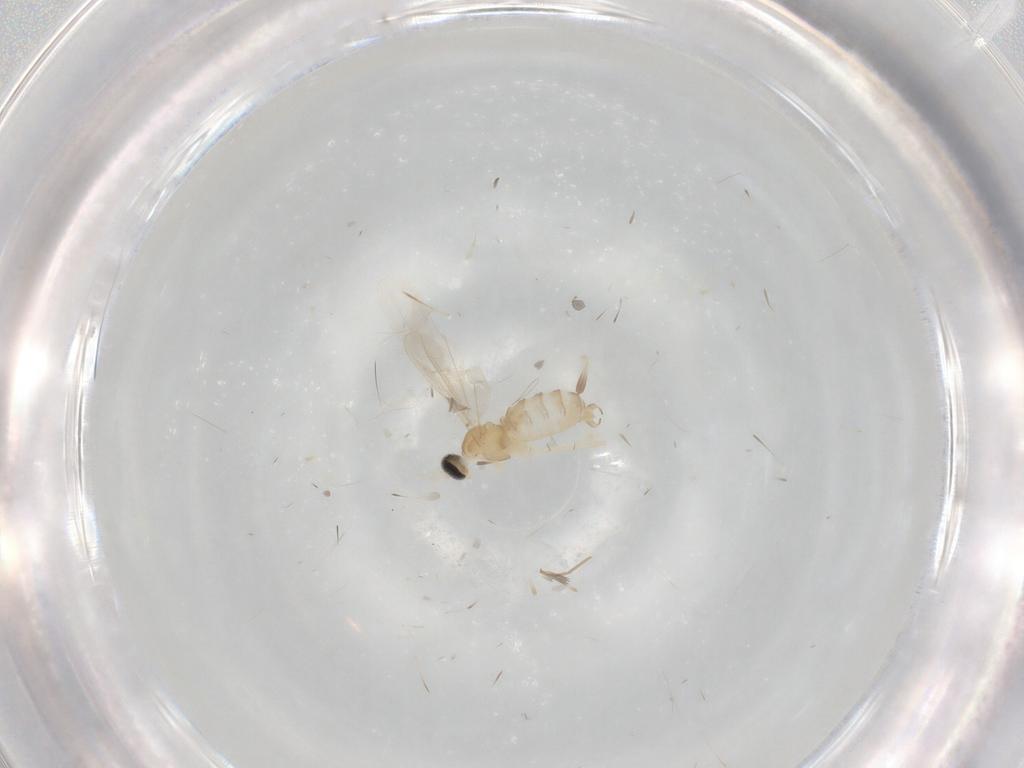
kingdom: Animalia
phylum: Arthropoda
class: Insecta
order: Diptera
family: Cecidomyiidae
